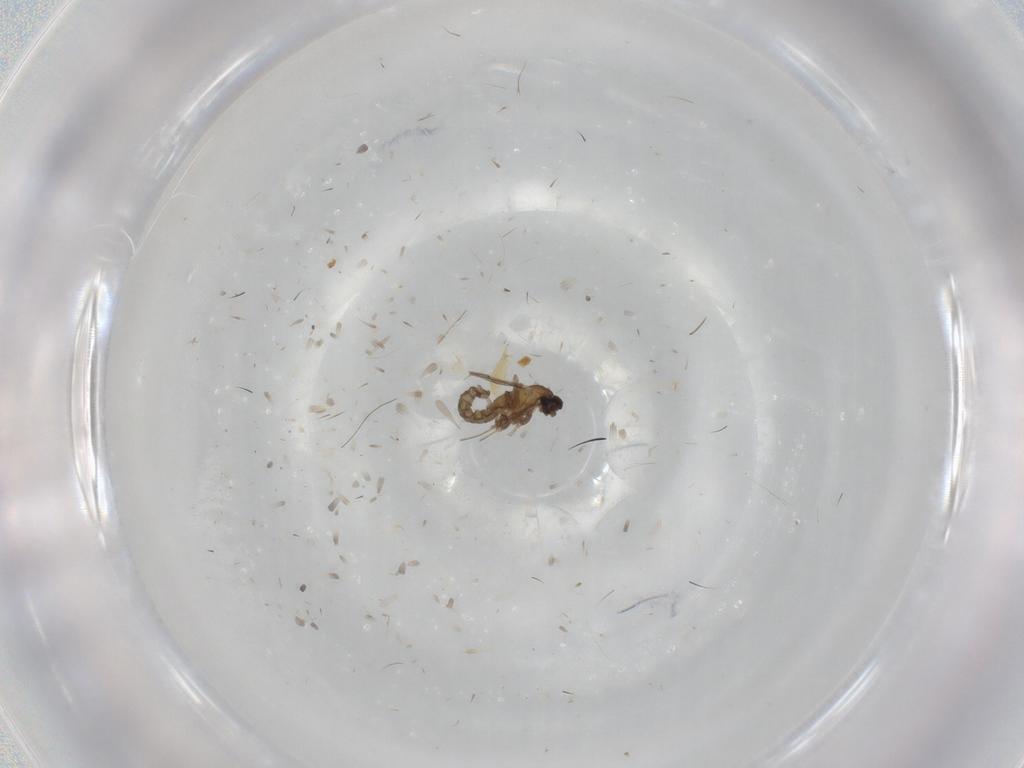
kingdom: Animalia
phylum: Arthropoda
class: Insecta
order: Diptera
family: Cecidomyiidae
